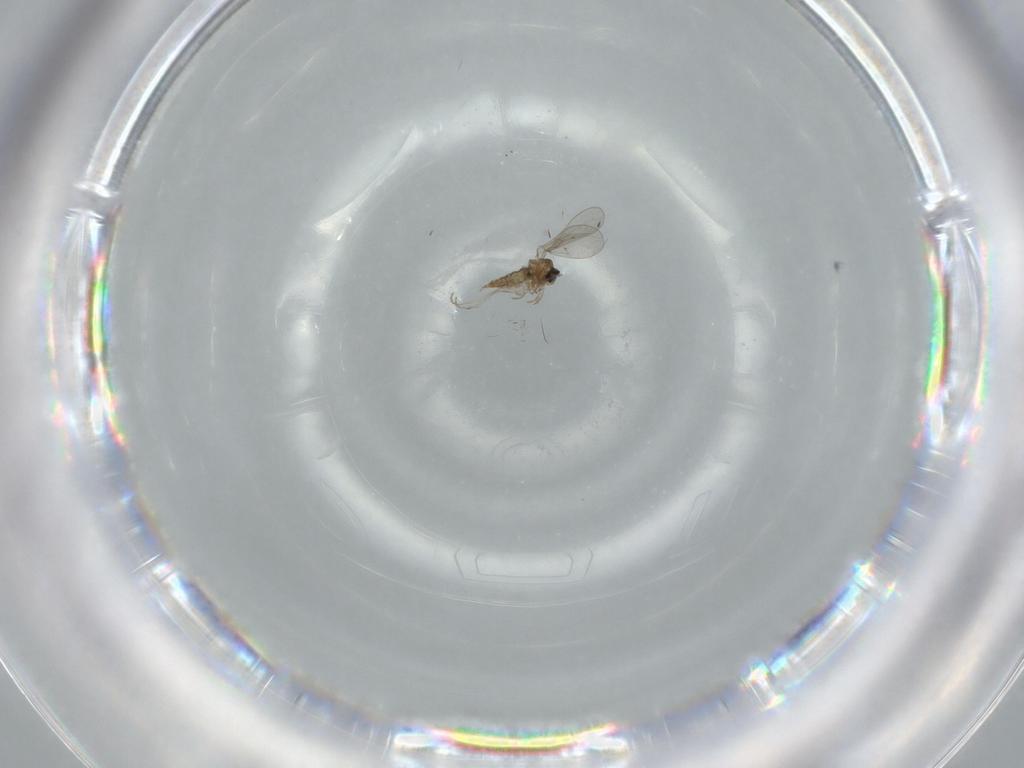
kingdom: Animalia
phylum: Arthropoda
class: Insecta
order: Diptera
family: Cecidomyiidae
